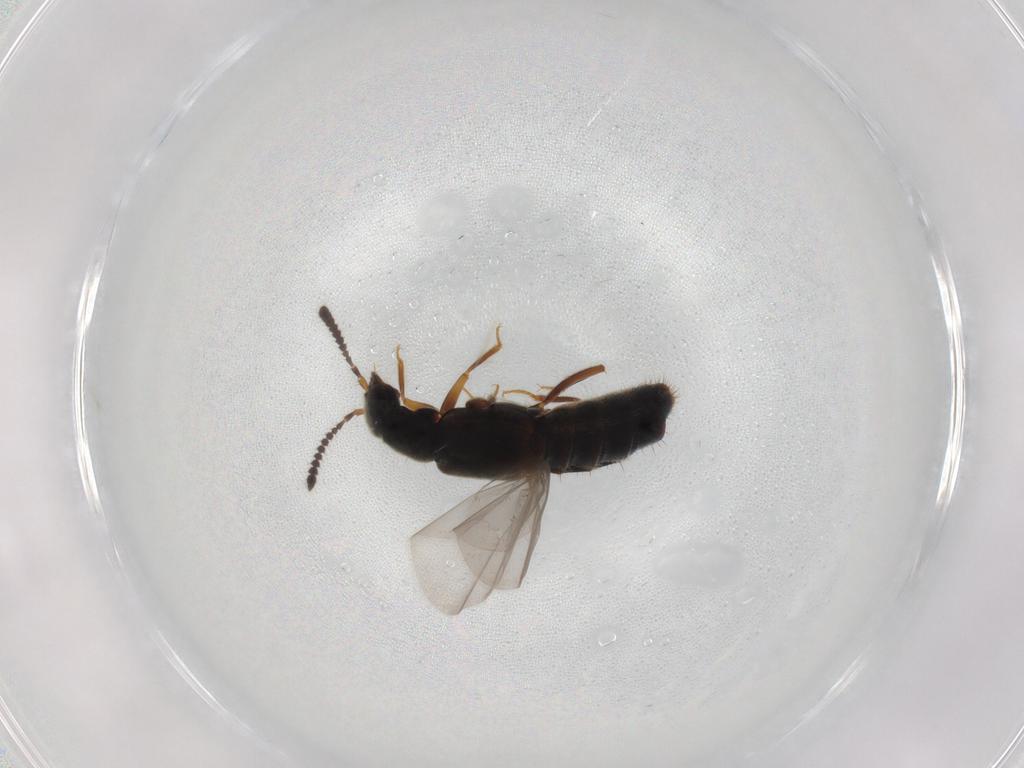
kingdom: Animalia
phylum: Arthropoda
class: Insecta
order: Coleoptera
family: Staphylinidae
